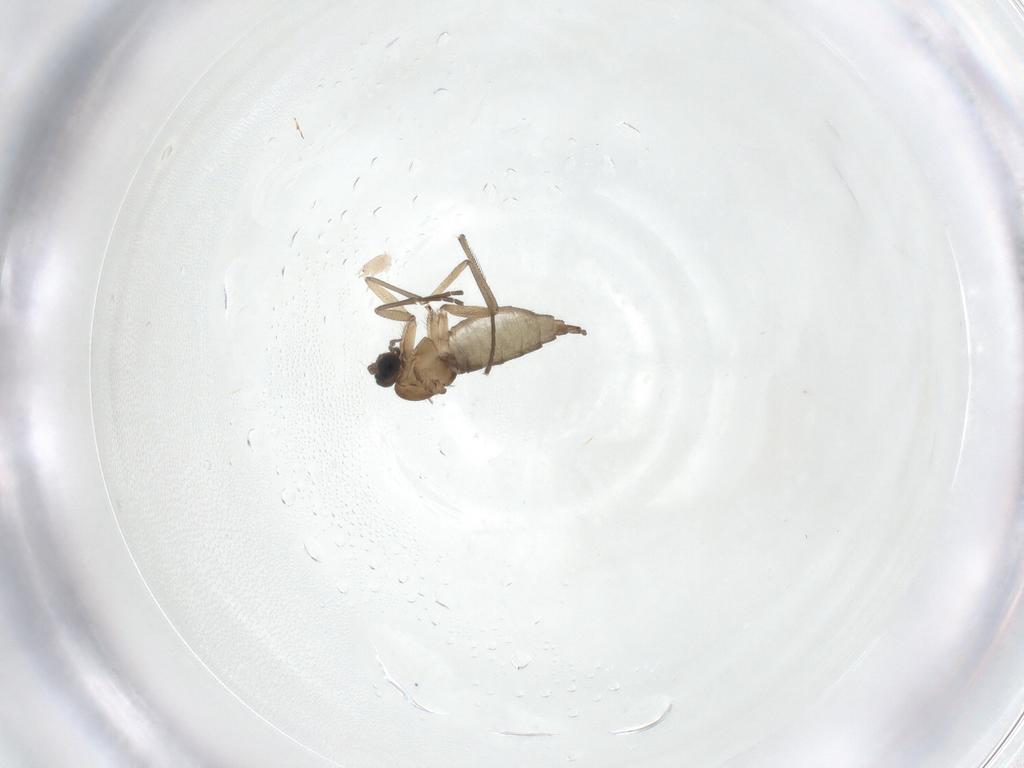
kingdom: Animalia
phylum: Arthropoda
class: Insecta
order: Diptera
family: Sciaridae
